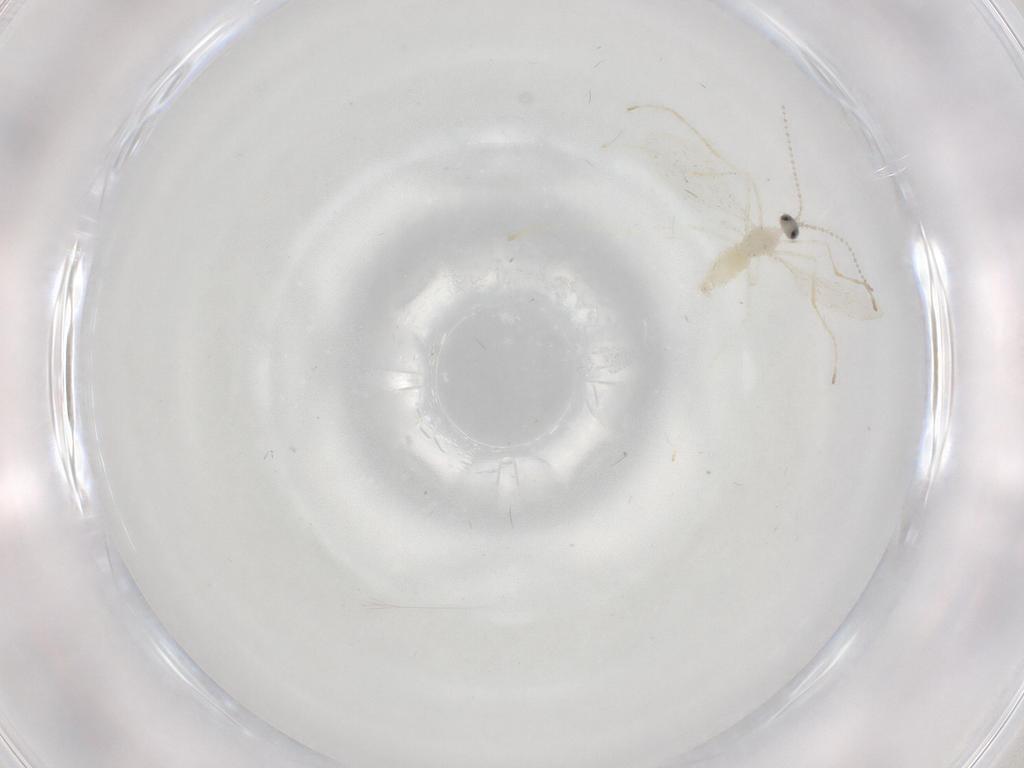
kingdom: Animalia
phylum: Arthropoda
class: Insecta
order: Diptera
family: Cecidomyiidae
